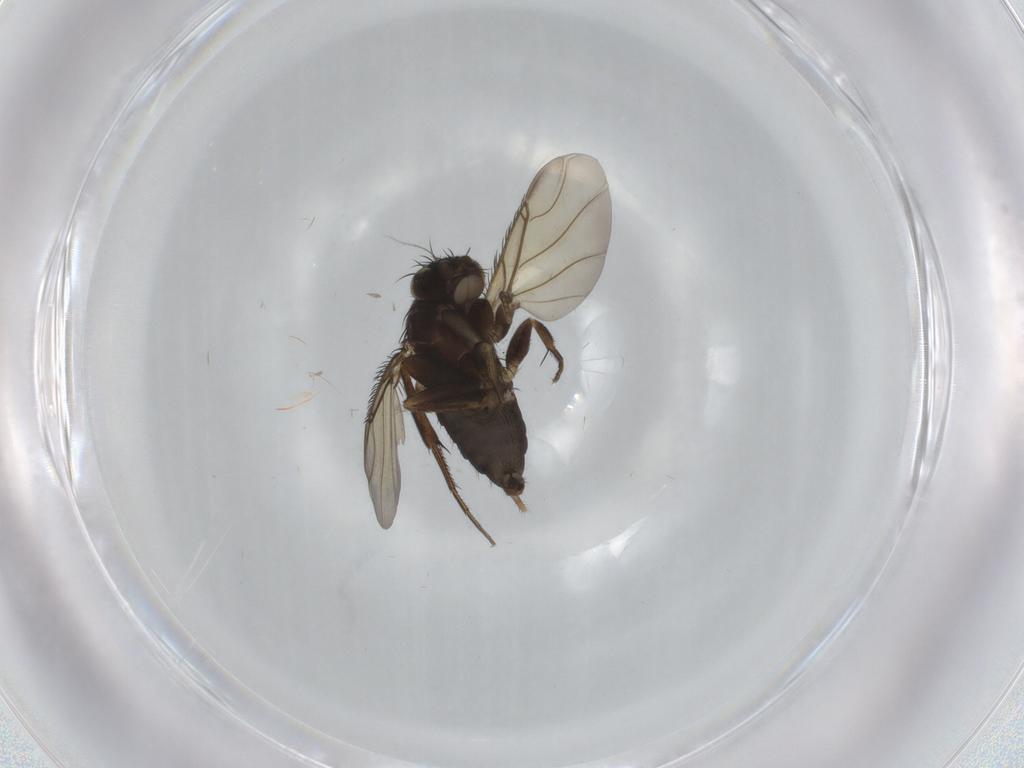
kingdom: Animalia
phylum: Arthropoda
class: Insecta
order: Diptera
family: Phoridae
